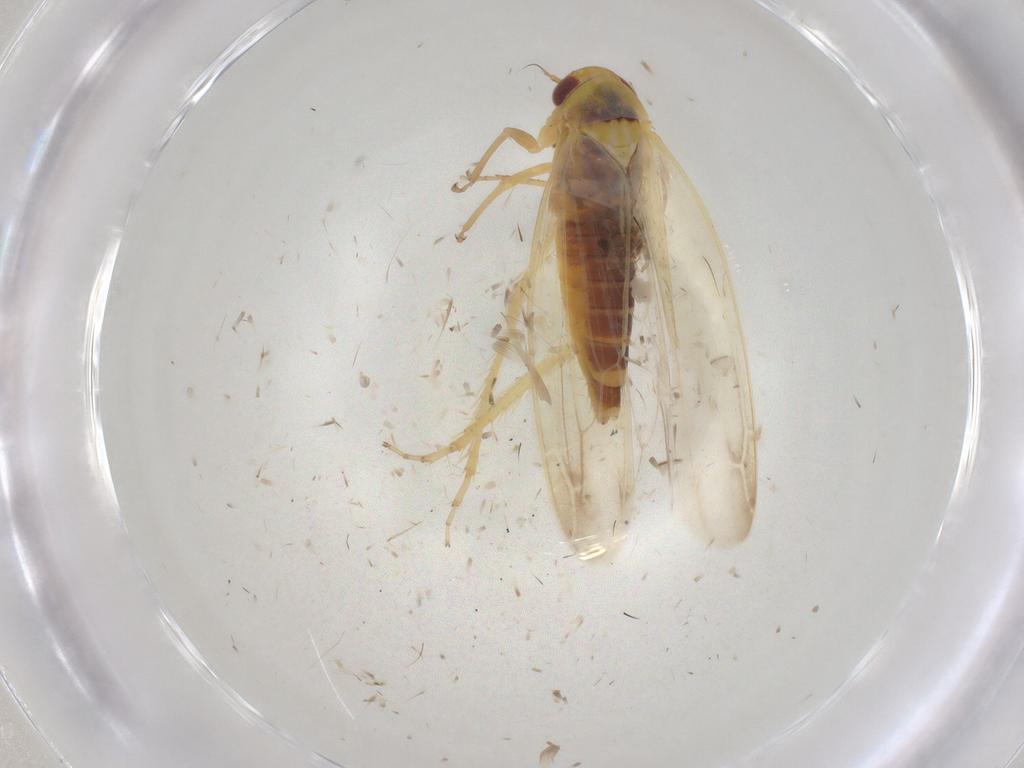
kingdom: Animalia
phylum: Arthropoda
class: Insecta
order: Hemiptera
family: Cicadellidae
